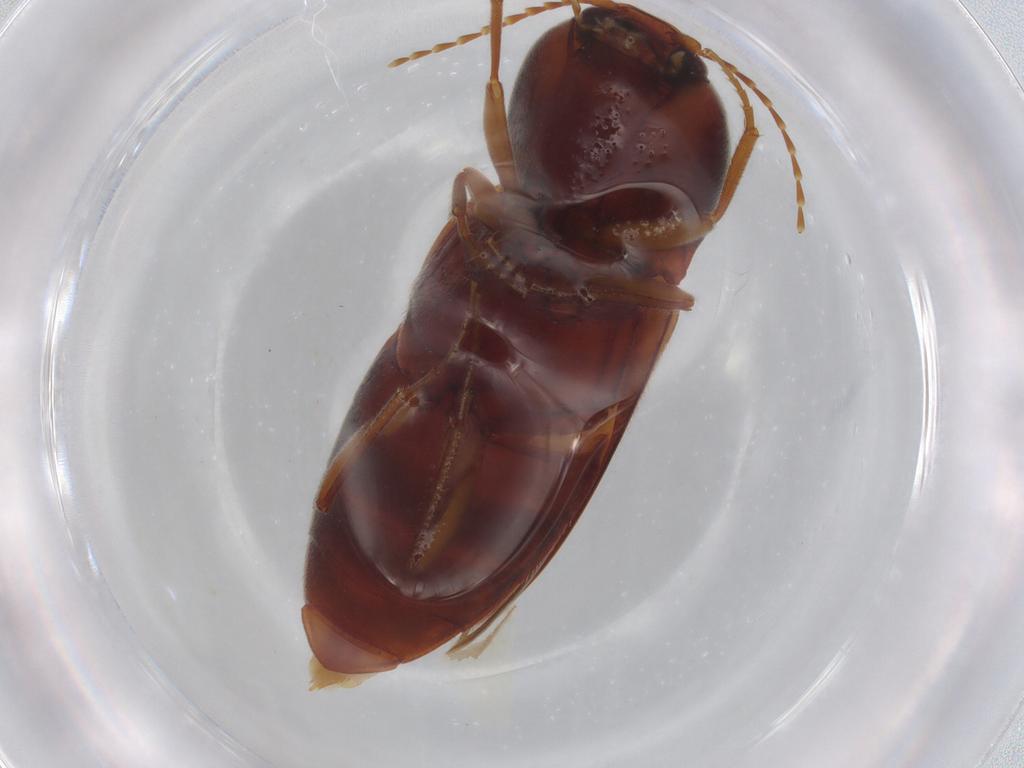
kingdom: Animalia
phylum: Arthropoda
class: Insecta
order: Coleoptera
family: Elateridae
